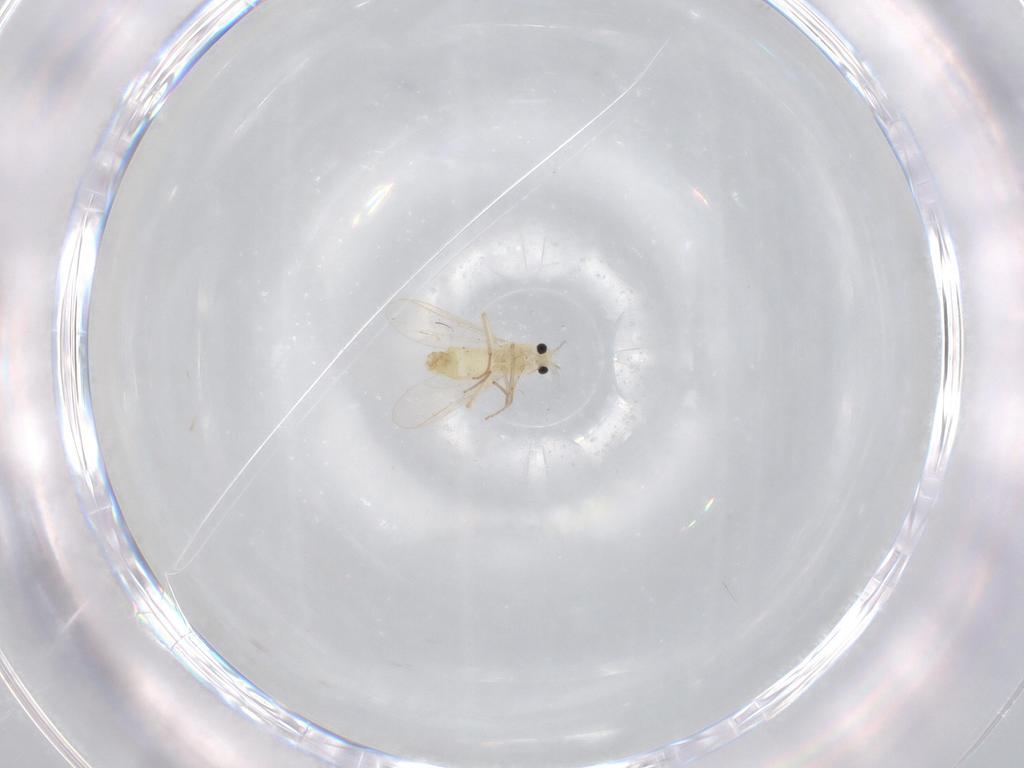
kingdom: Animalia
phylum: Arthropoda
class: Insecta
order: Diptera
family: Chironomidae
